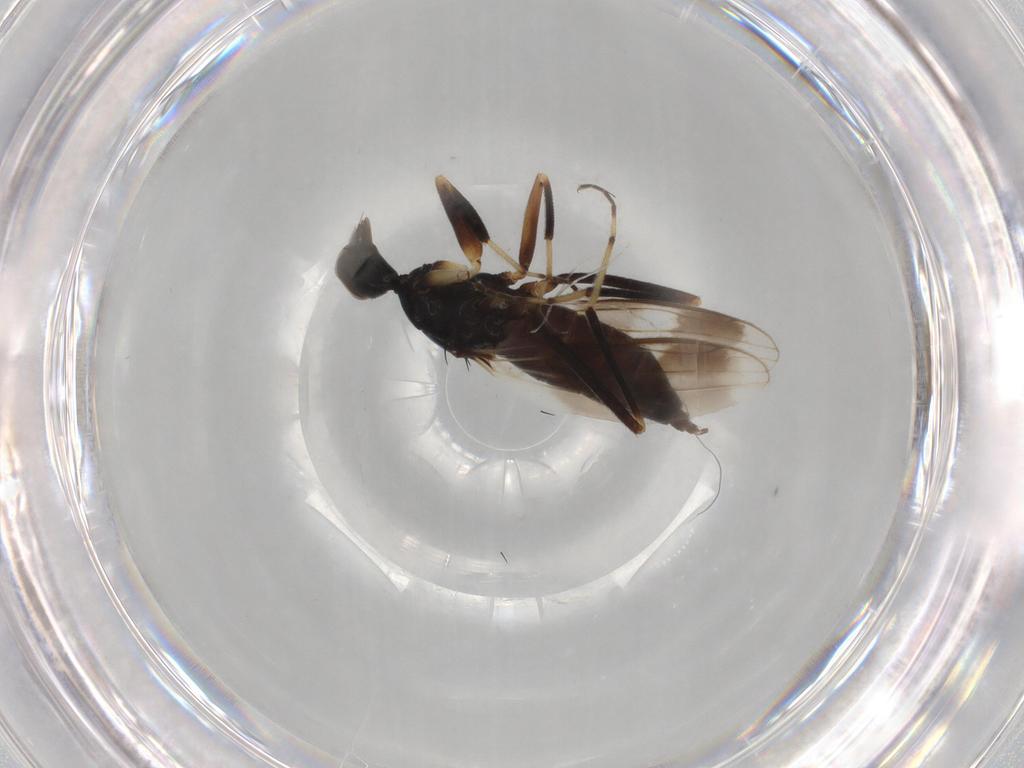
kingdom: Animalia
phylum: Arthropoda
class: Insecta
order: Diptera
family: Hybotidae
